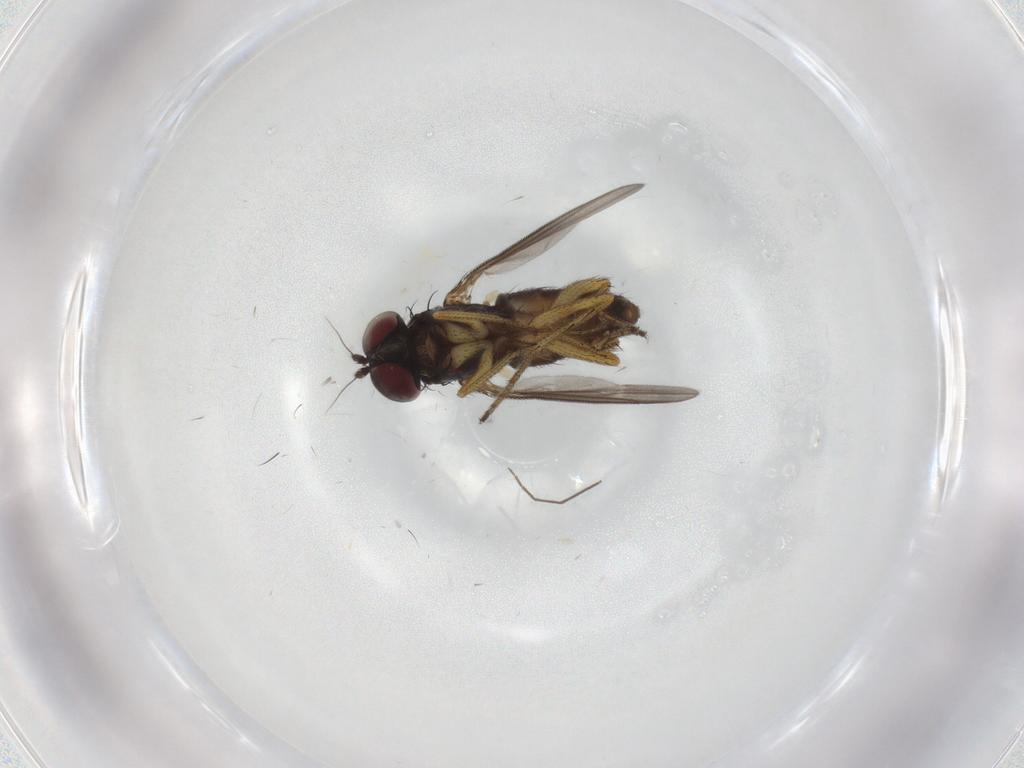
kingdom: Animalia
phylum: Arthropoda
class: Insecta
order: Diptera
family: Dolichopodidae
